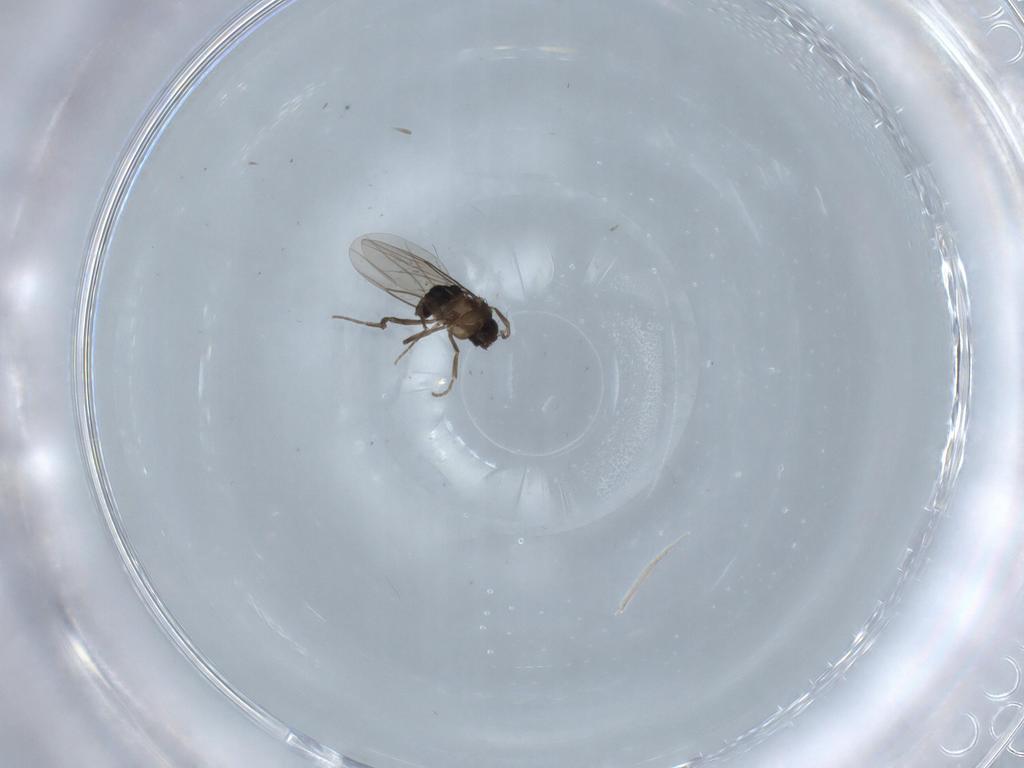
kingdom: Animalia
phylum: Arthropoda
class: Insecta
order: Diptera
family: Phoridae
